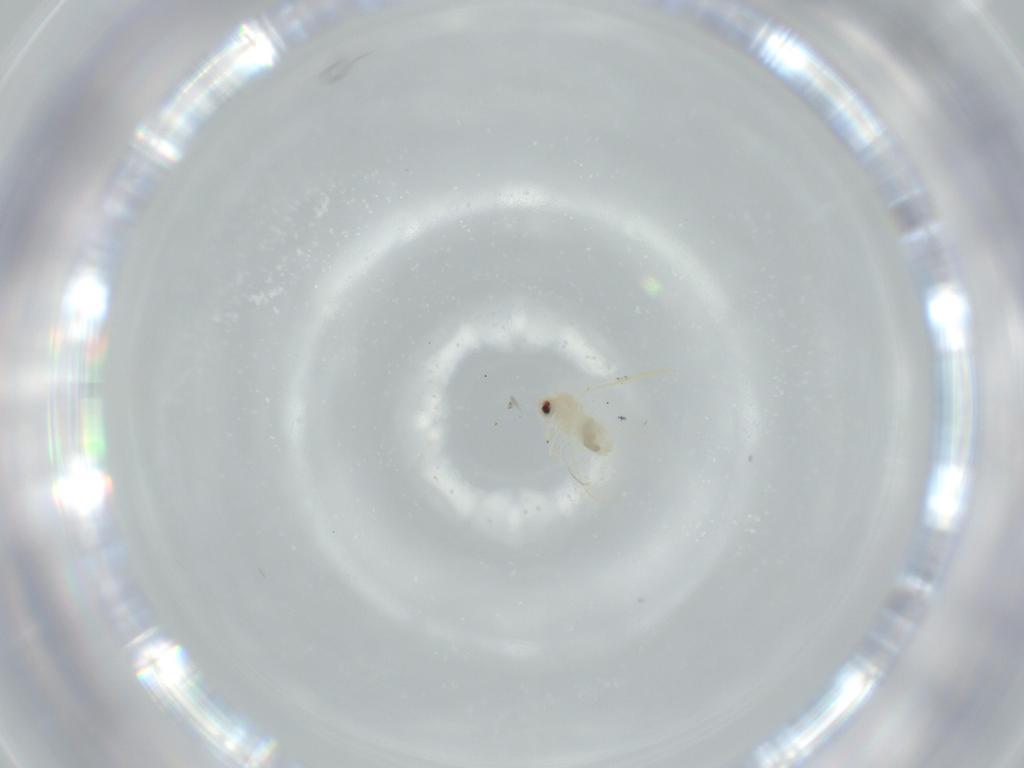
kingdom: Animalia
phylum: Arthropoda
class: Insecta
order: Hemiptera
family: Aleyrodidae
